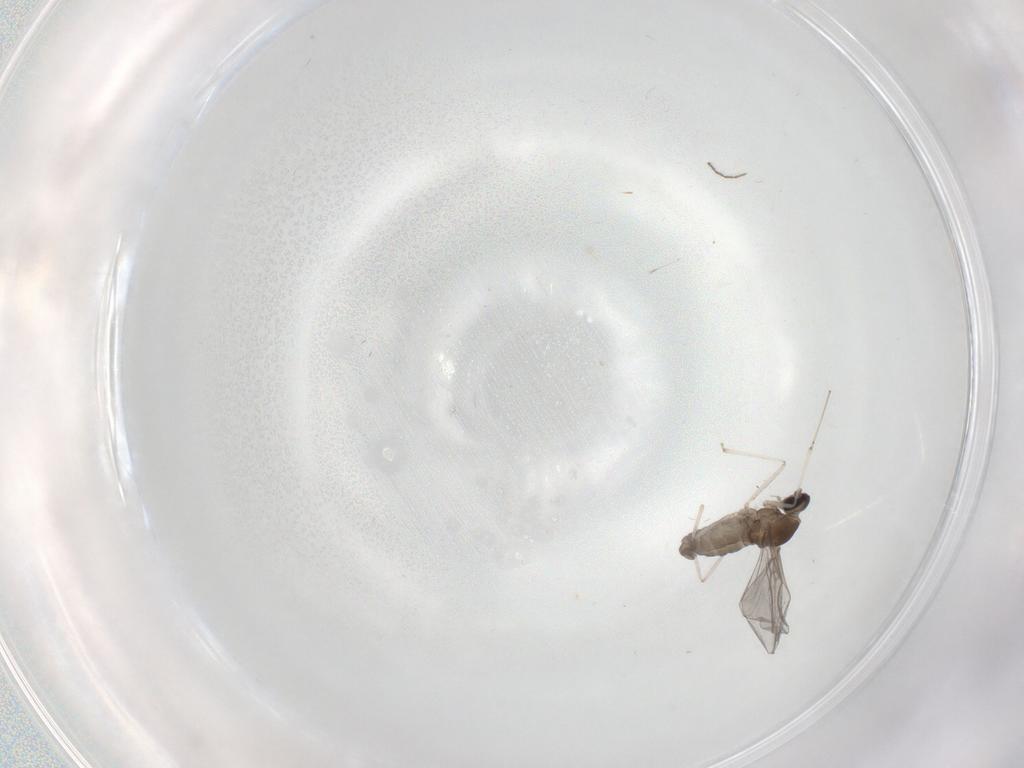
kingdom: Animalia
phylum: Arthropoda
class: Insecta
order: Diptera
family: Cecidomyiidae
